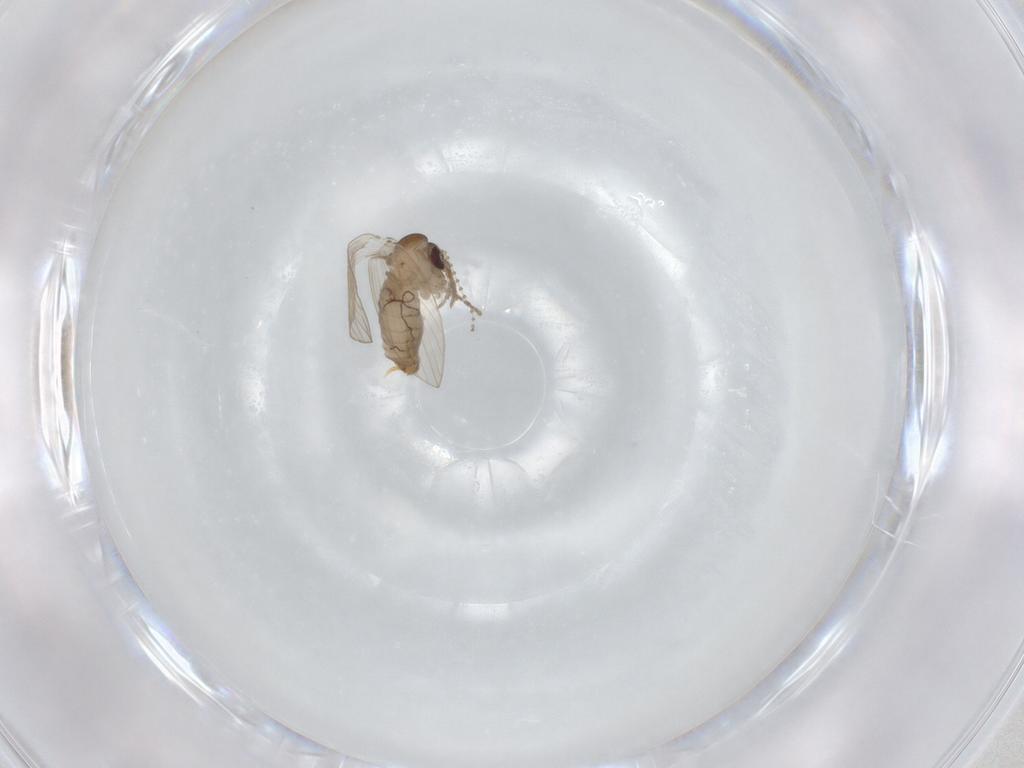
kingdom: Animalia
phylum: Arthropoda
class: Insecta
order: Diptera
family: Psychodidae
